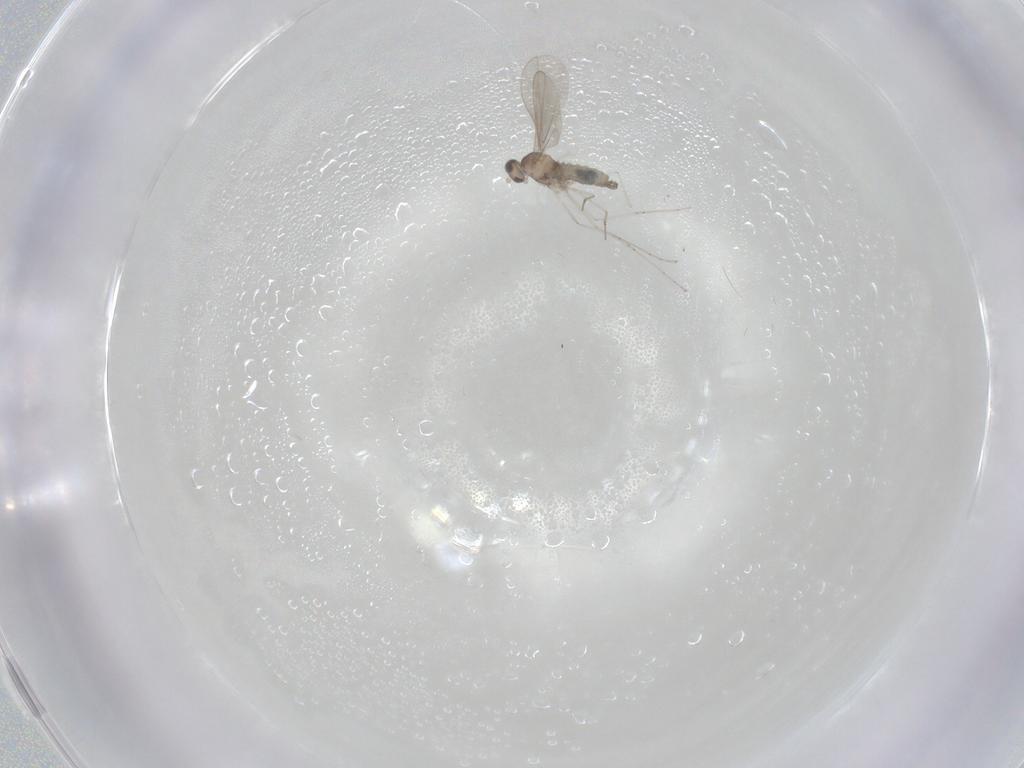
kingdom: Animalia
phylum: Arthropoda
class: Insecta
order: Diptera
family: Cecidomyiidae
